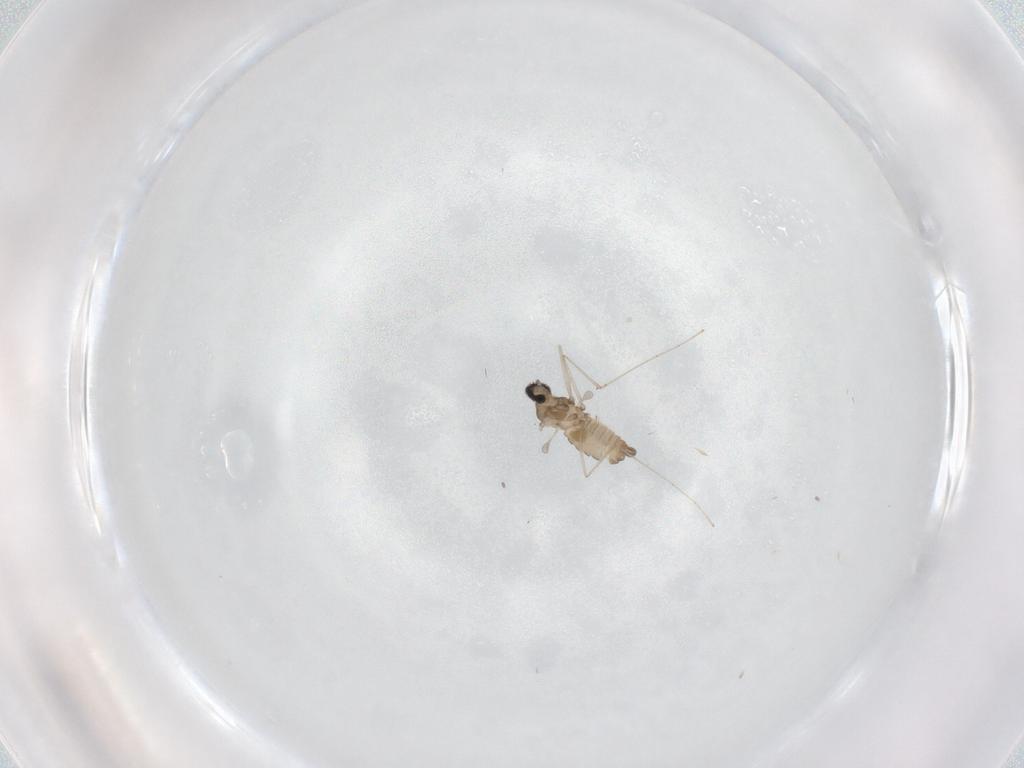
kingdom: Animalia
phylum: Arthropoda
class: Insecta
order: Diptera
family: Cecidomyiidae
